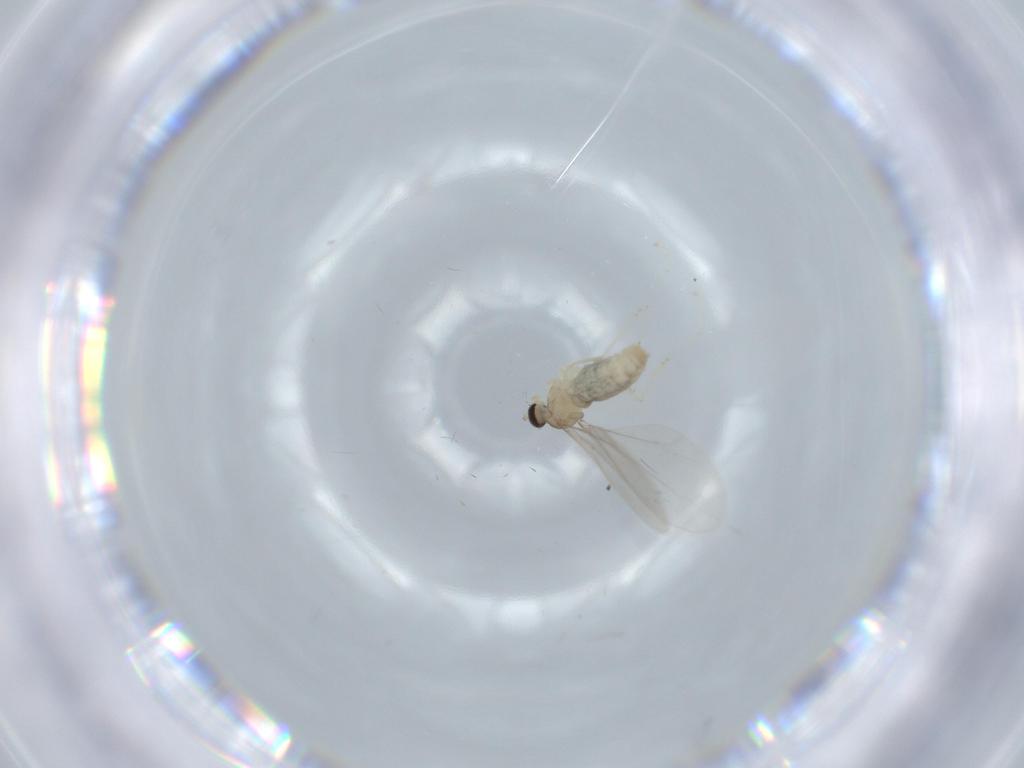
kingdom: Animalia
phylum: Arthropoda
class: Insecta
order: Diptera
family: Cecidomyiidae
